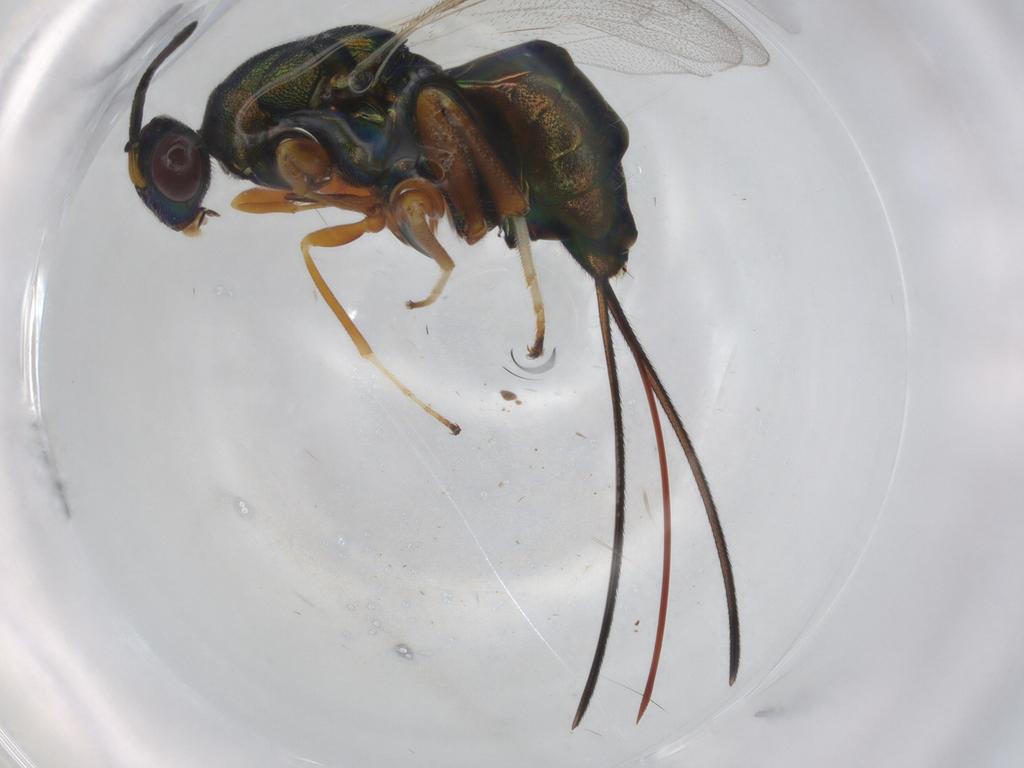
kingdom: Animalia
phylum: Arthropoda
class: Insecta
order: Hymenoptera
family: Torymidae
